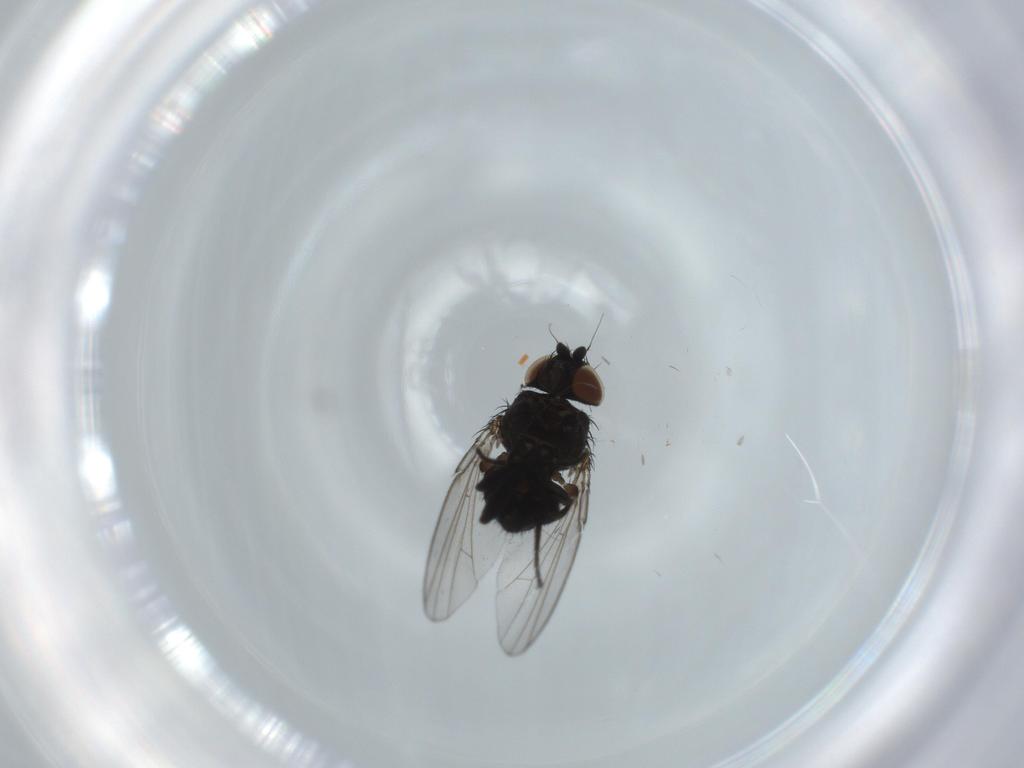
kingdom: Animalia
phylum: Arthropoda
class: Insecta
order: Diptera
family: Milichiidae
